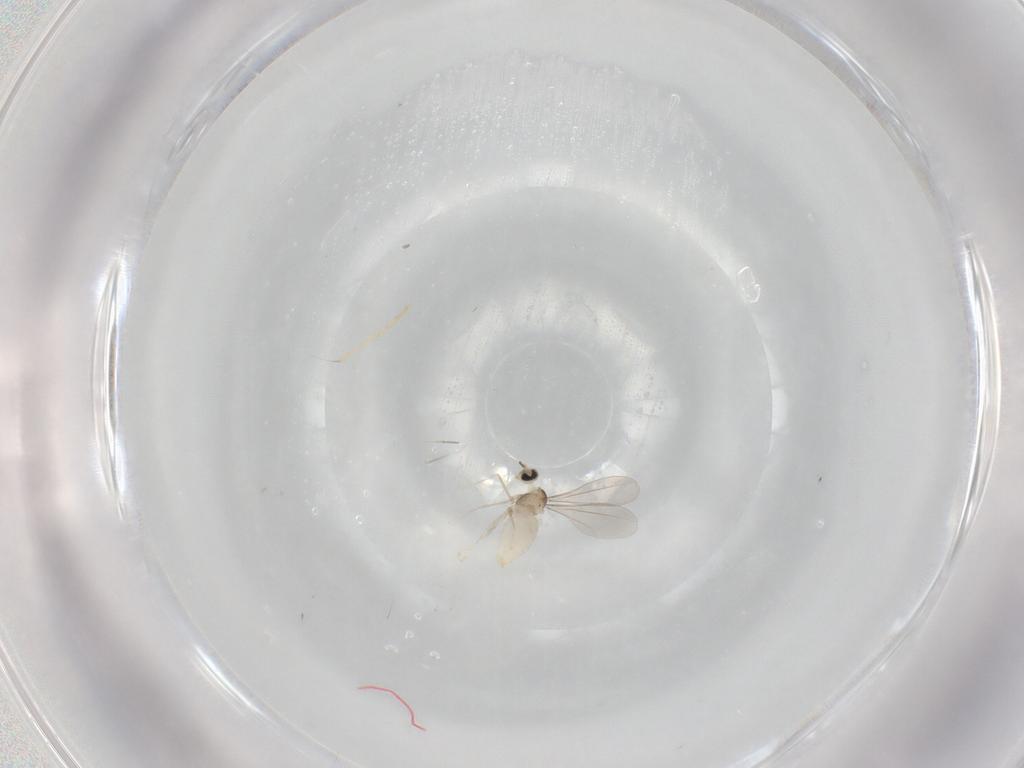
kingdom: Animalia
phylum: Arthropoda
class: Insecta
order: Diptera
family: Cecidomyiidae
